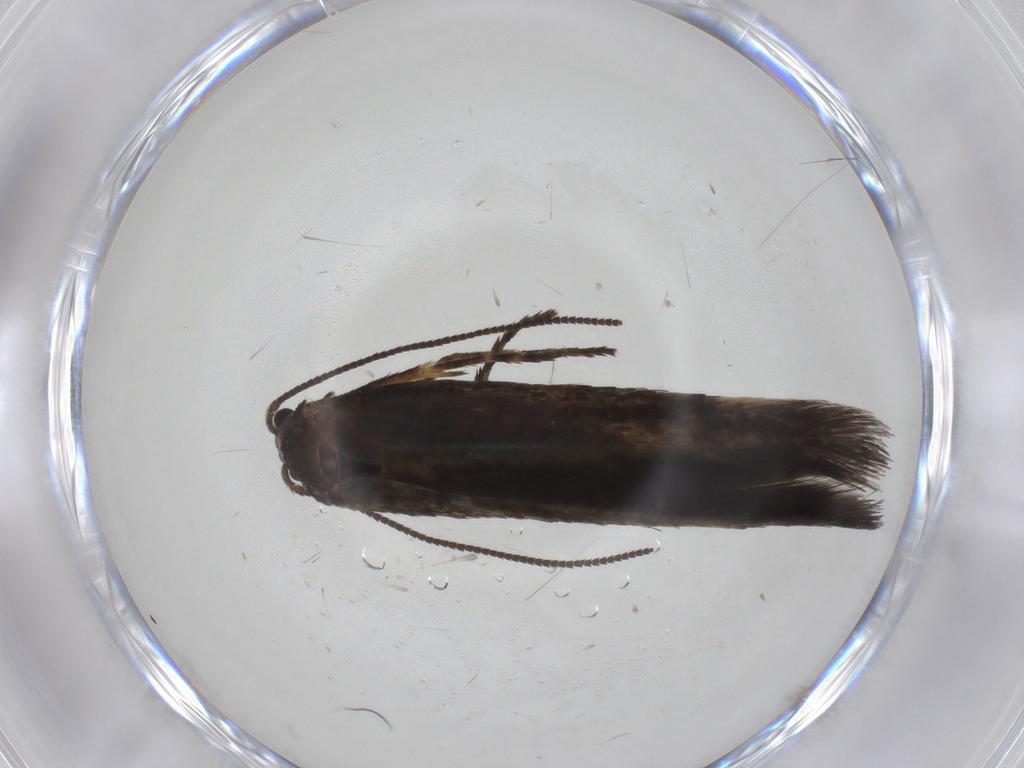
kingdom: Animalia
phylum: Arthropoda
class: Insecta
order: Lepidoptera
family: Nepticulidae
